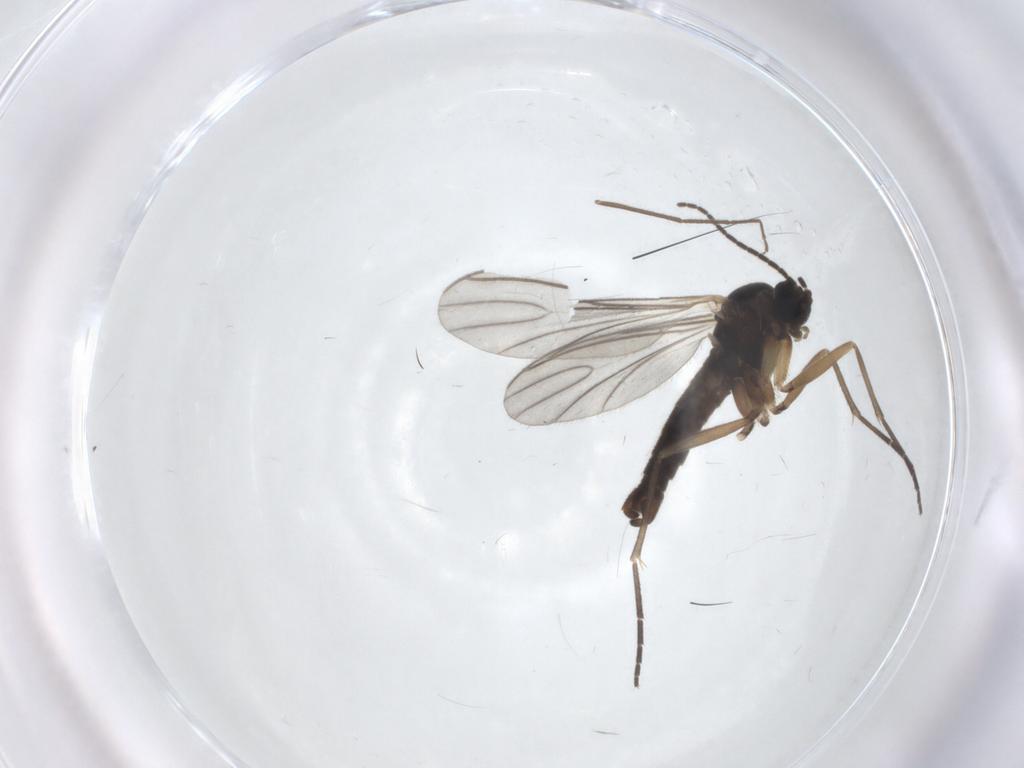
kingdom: Animalia
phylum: Arthropoda
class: Insecta
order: Diptera
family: Sciaridae
